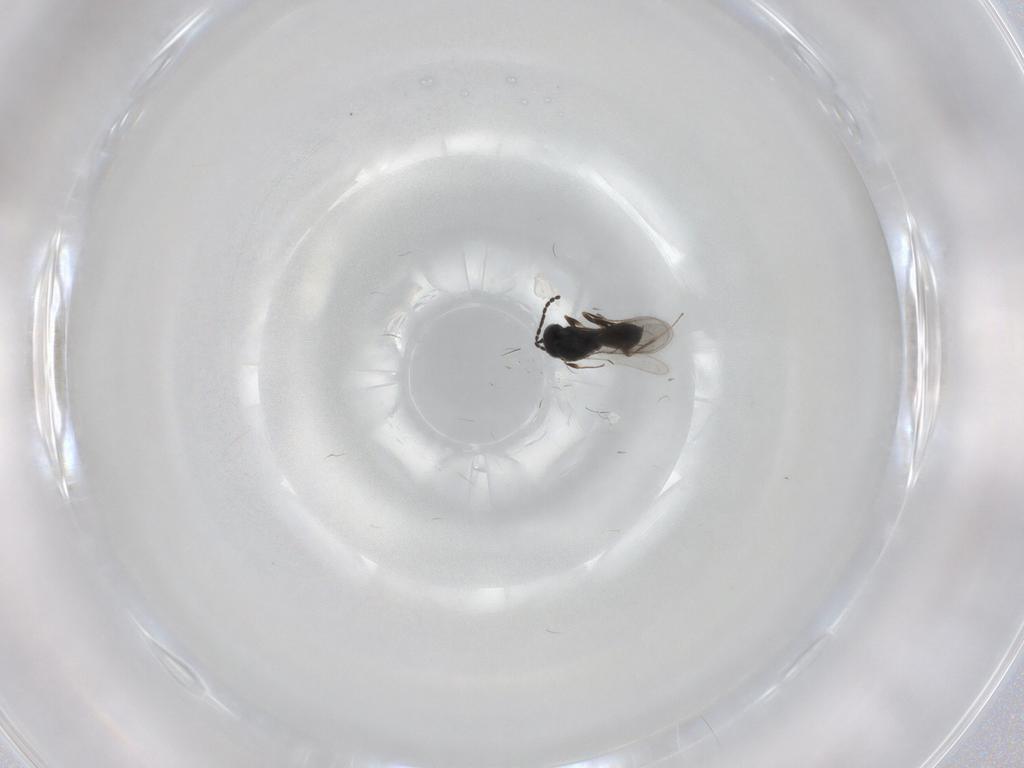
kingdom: Animalia
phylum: Arthropoda
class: Insecta
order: Hymenoptera
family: Scelionidae
